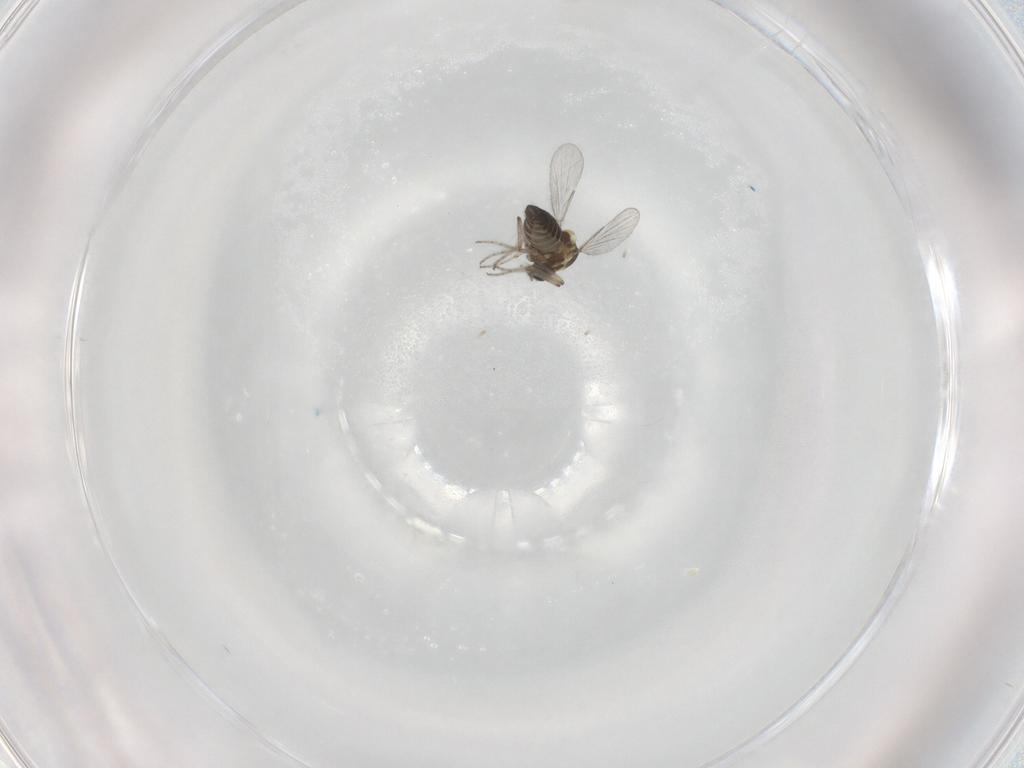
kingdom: Animalia
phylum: Arthropoda
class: Insecta
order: Diptera
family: Ceratopogonidae
